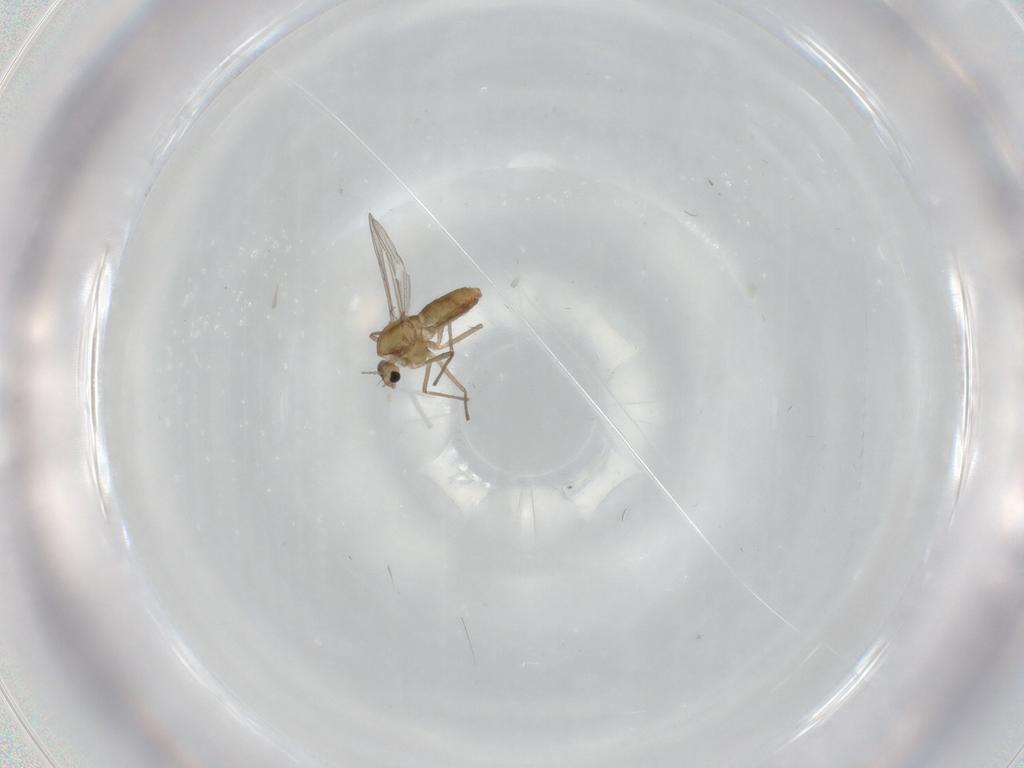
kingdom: Animalia
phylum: Arthropoda
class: Insecta
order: Diptera
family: Chironomidae
